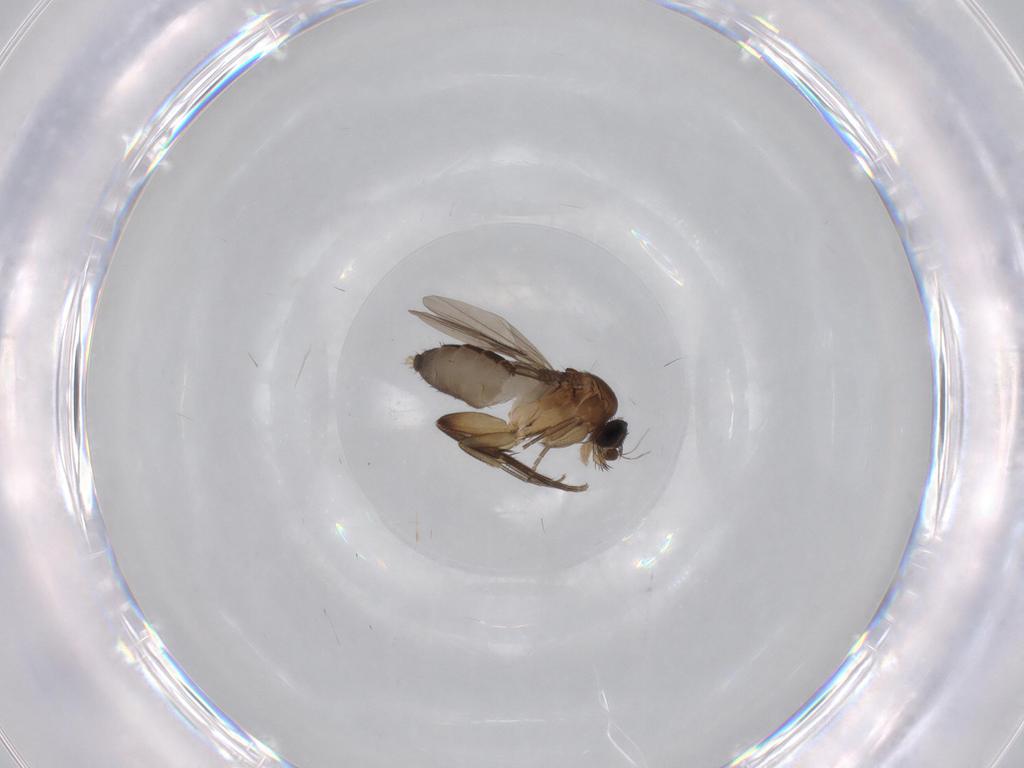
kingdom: Animalia
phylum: Arthropoda
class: Insecta
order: Diptera
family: Phoridae
